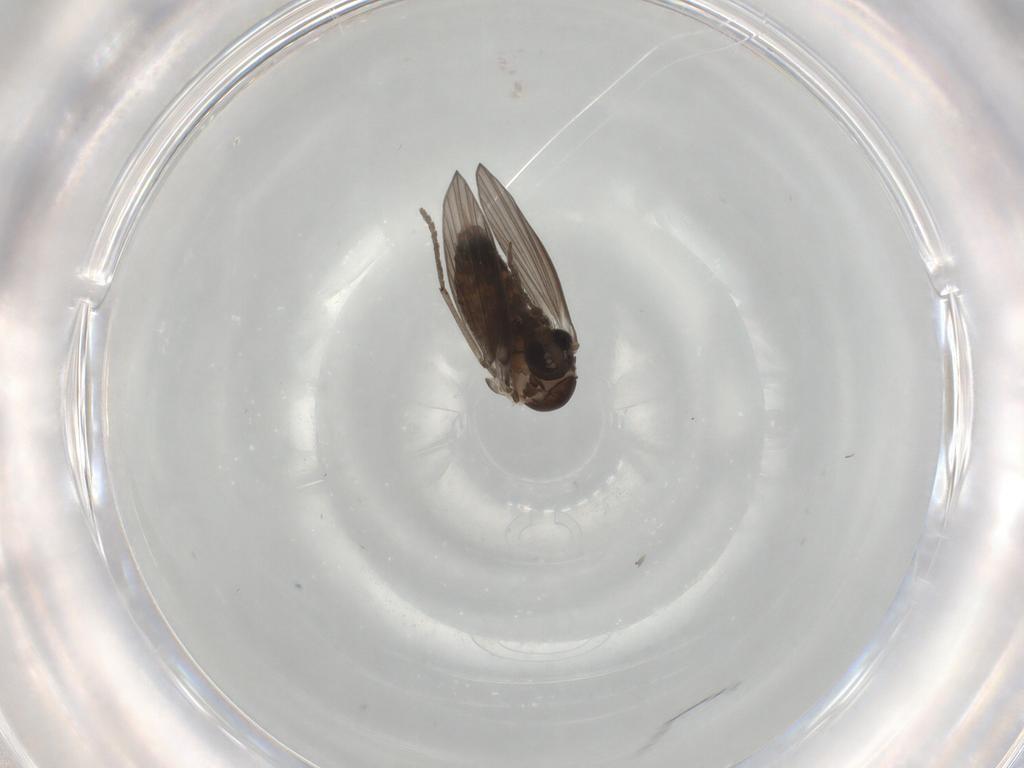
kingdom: Animalia
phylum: Arthropoda
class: Insecta
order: Diptera
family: Psychodidae
